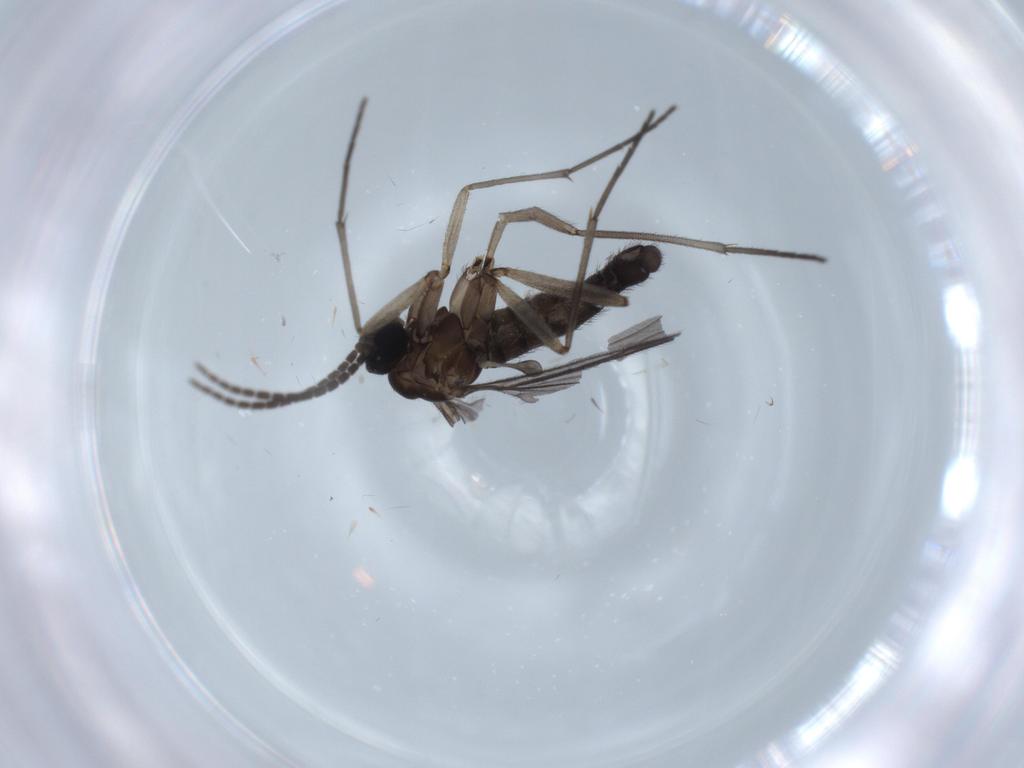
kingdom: Animalia
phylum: Arthropoda
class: Insecta
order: Diptera
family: Sciaridae
